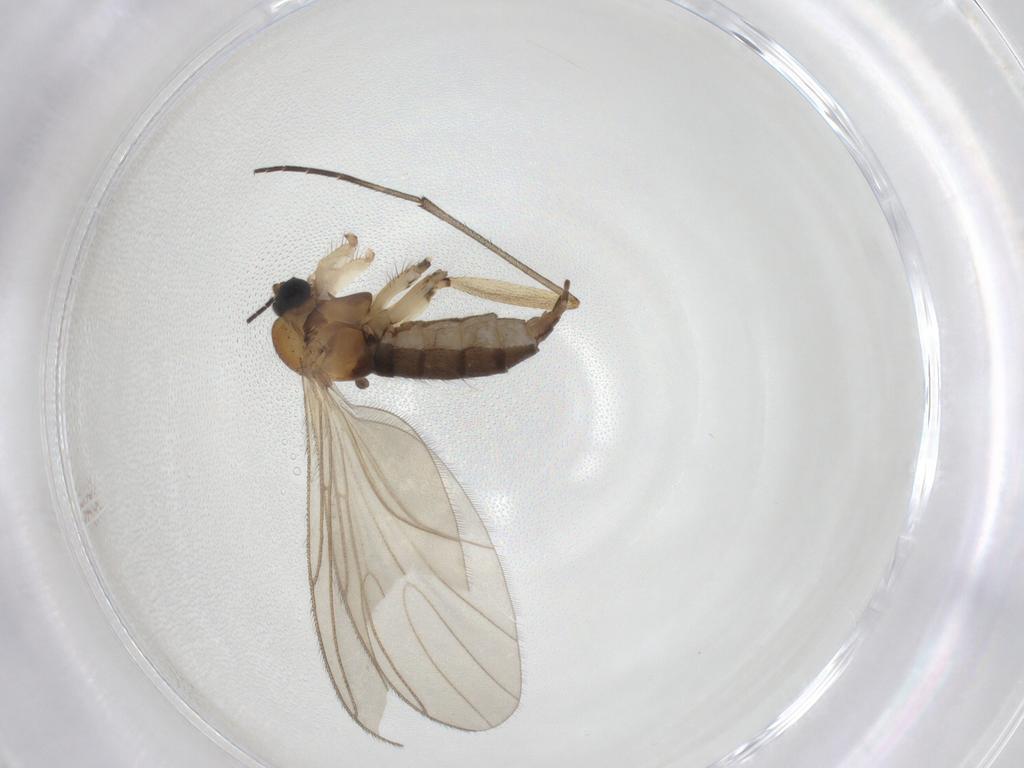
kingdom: Animalia
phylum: Arthropoda
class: Insecta
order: Diptera
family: Sciaridae
